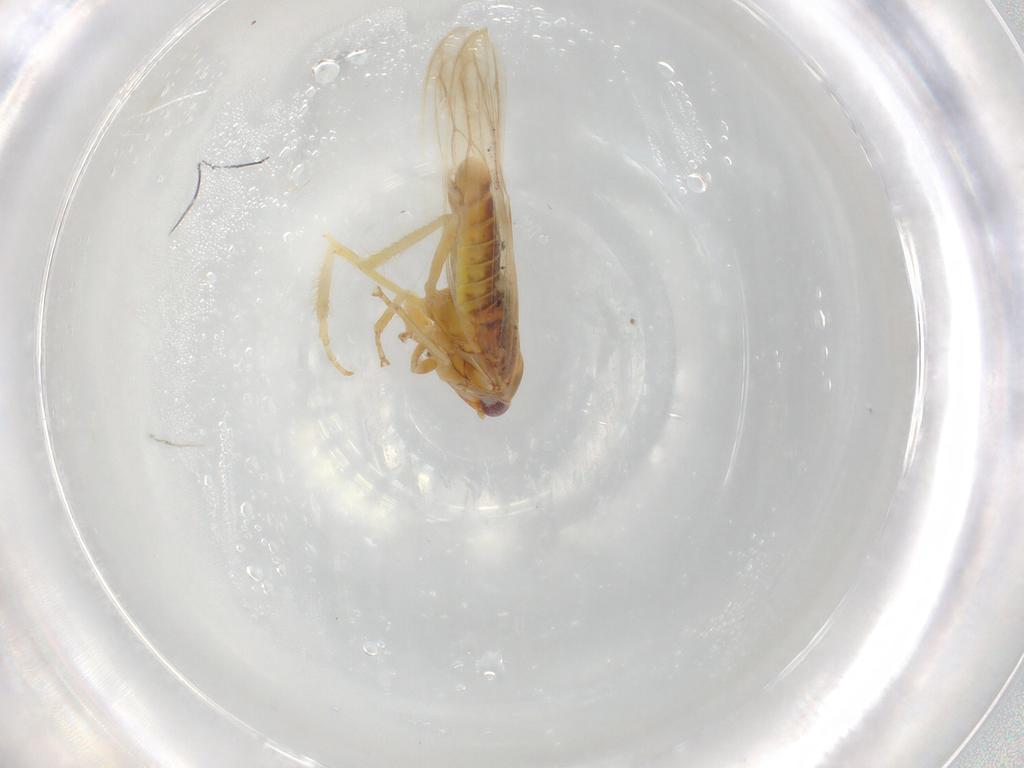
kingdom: Animalia
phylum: Arthropoda
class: Insecta
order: Hemiptera
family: Cicadellidae
